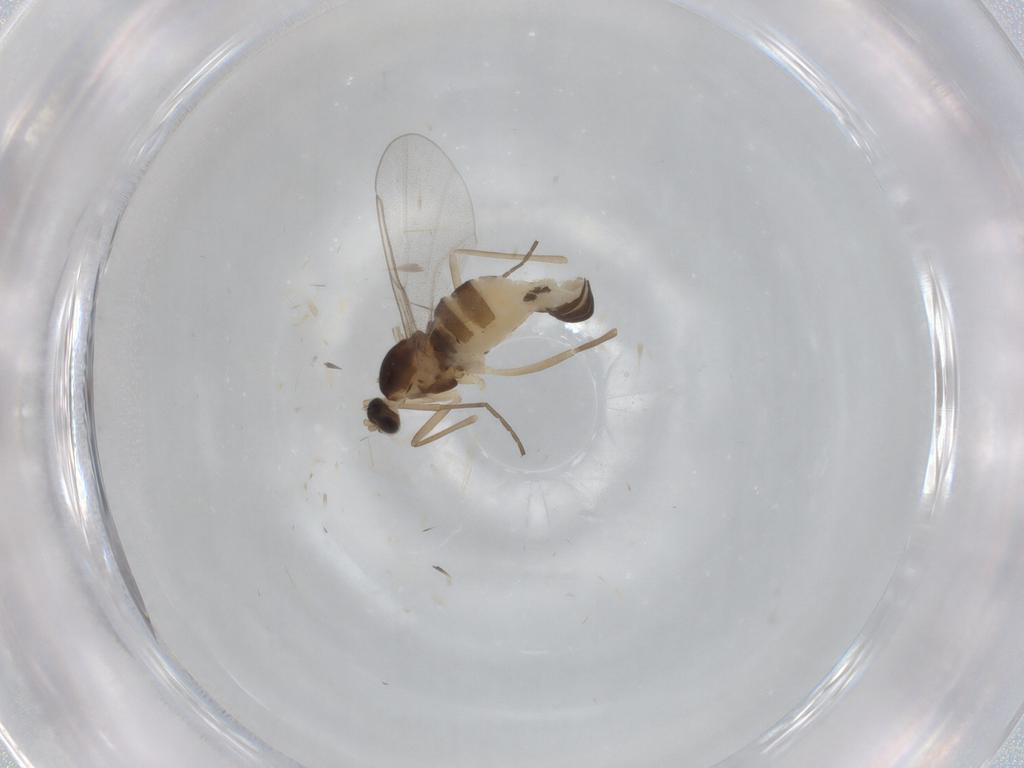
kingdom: Animalia
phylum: Arthropoda
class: Insecta
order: Diptera
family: Cecidomyiidae
